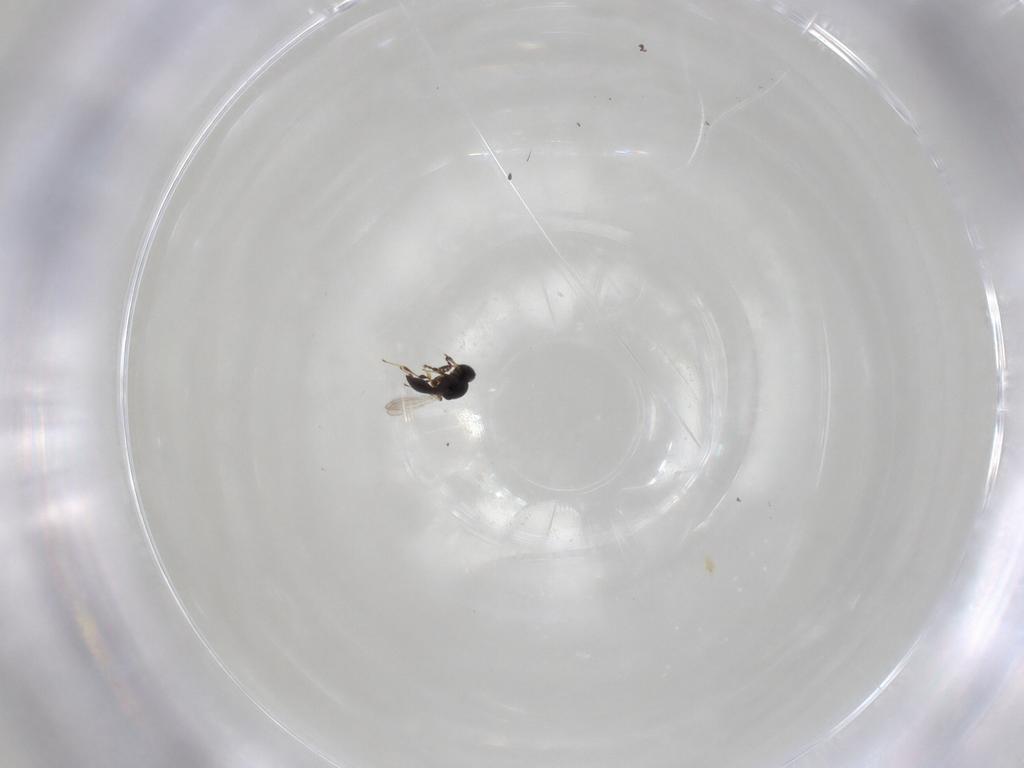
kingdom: Animalia
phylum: Arthropoda
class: Insecta
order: Hymenoptera
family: Platygastridae
